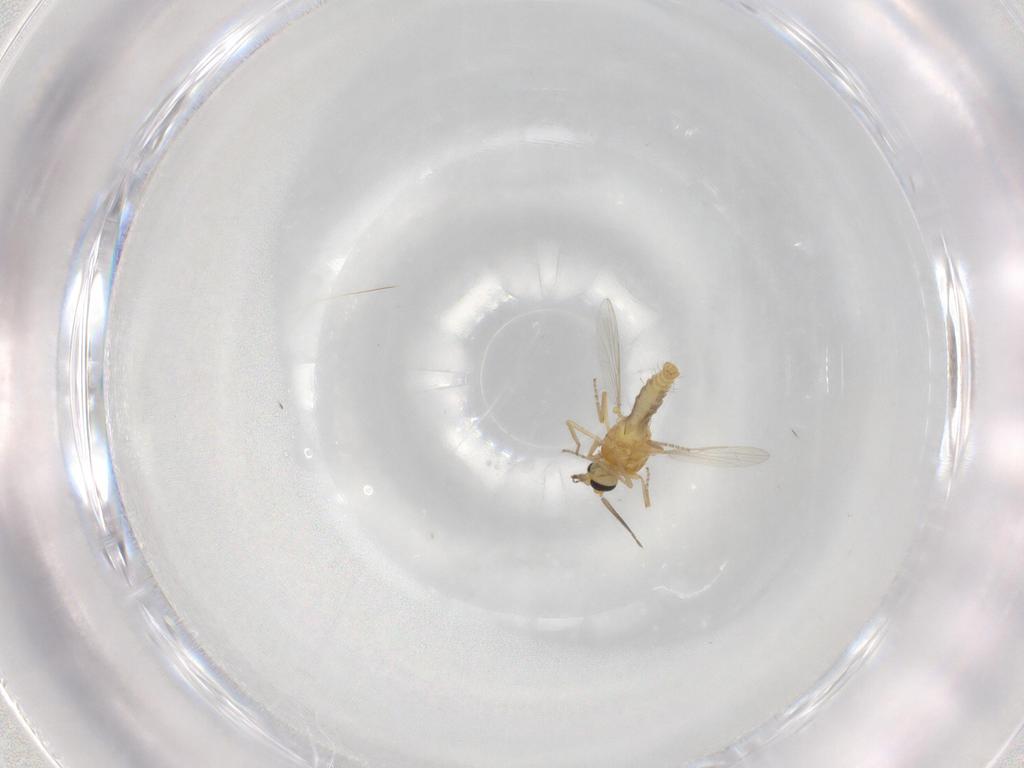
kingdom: Animalia
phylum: Arthropoda
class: Insecta
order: Diptera
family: Ceratopogonidae
